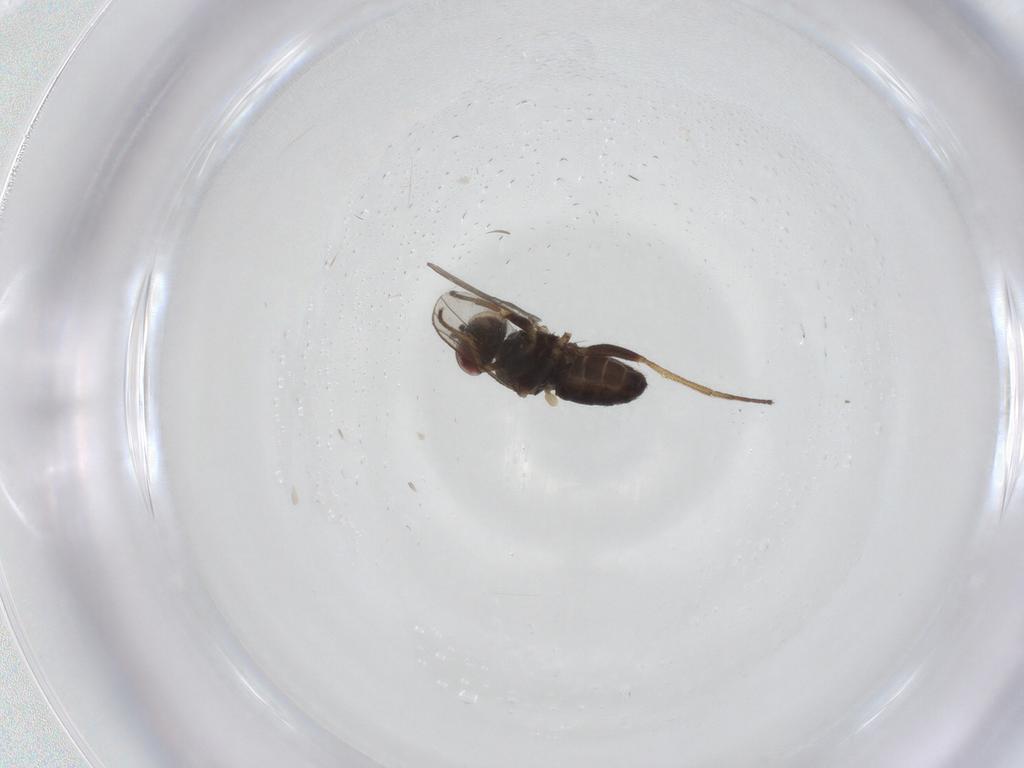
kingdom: Animalia
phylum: Arthropoda
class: Insecta
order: Diptera
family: Dolichopodidae
